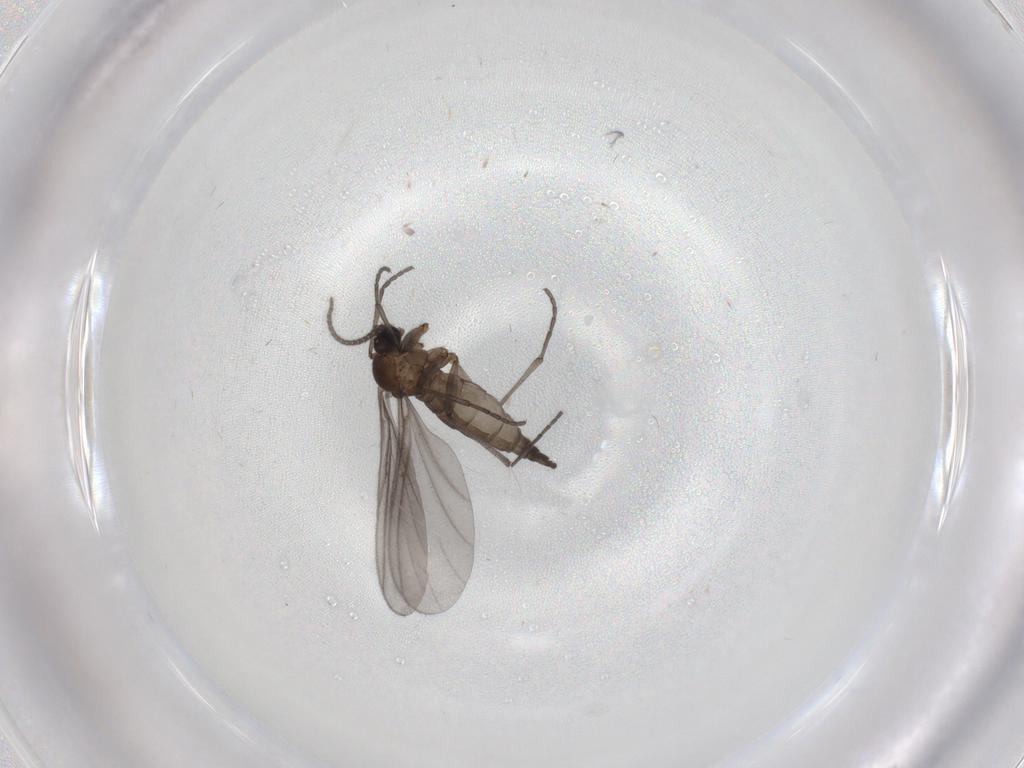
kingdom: Animalia
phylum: Arthropoda
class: Insecta
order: Diptera
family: Sciaridae
